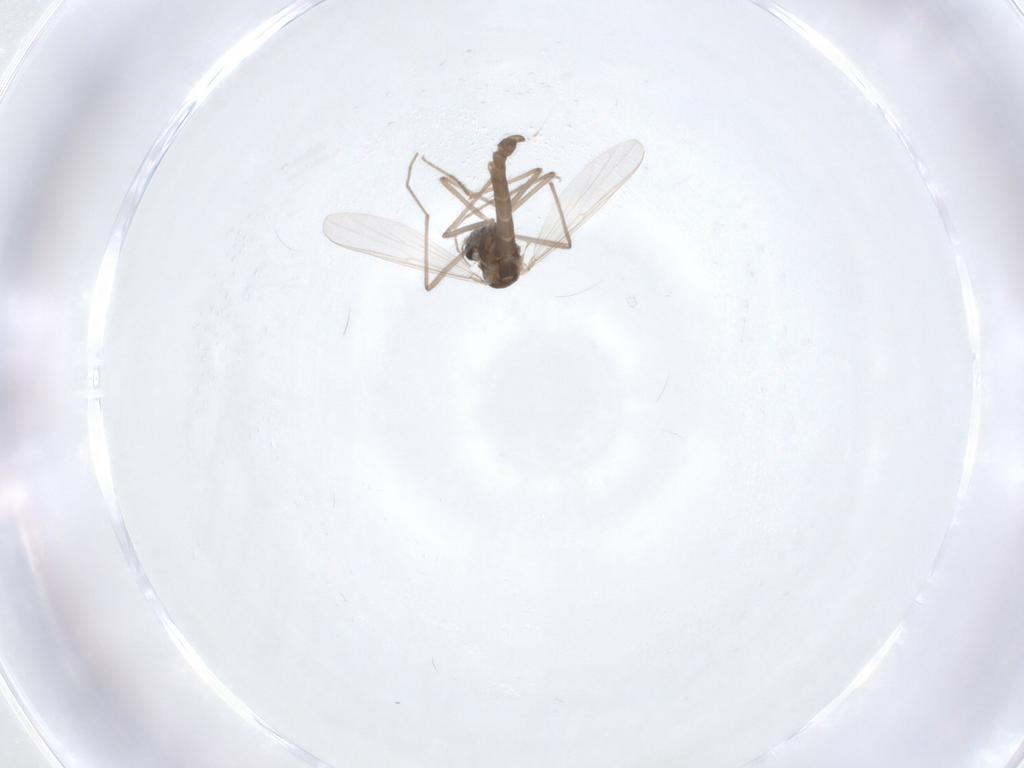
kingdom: Animalia
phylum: Arthropoda
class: Insecta
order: Diptera
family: Chironomidae
